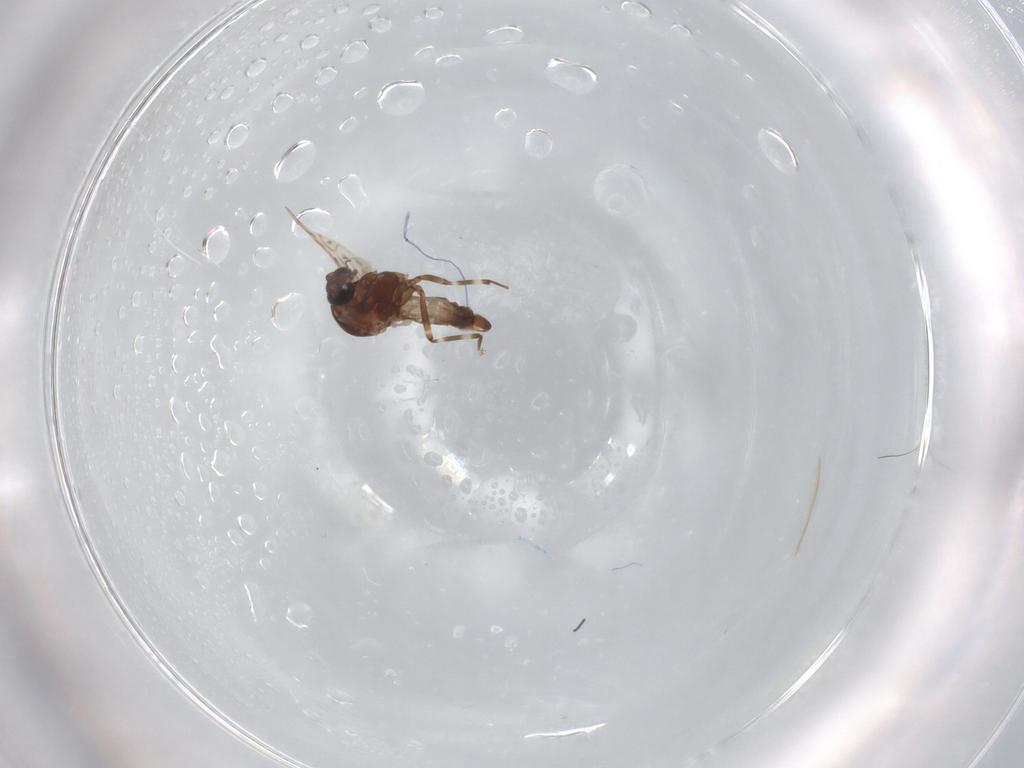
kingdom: Animalia
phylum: Arthropoda
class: Insecta
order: Diptera
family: Ceratopogonidae
